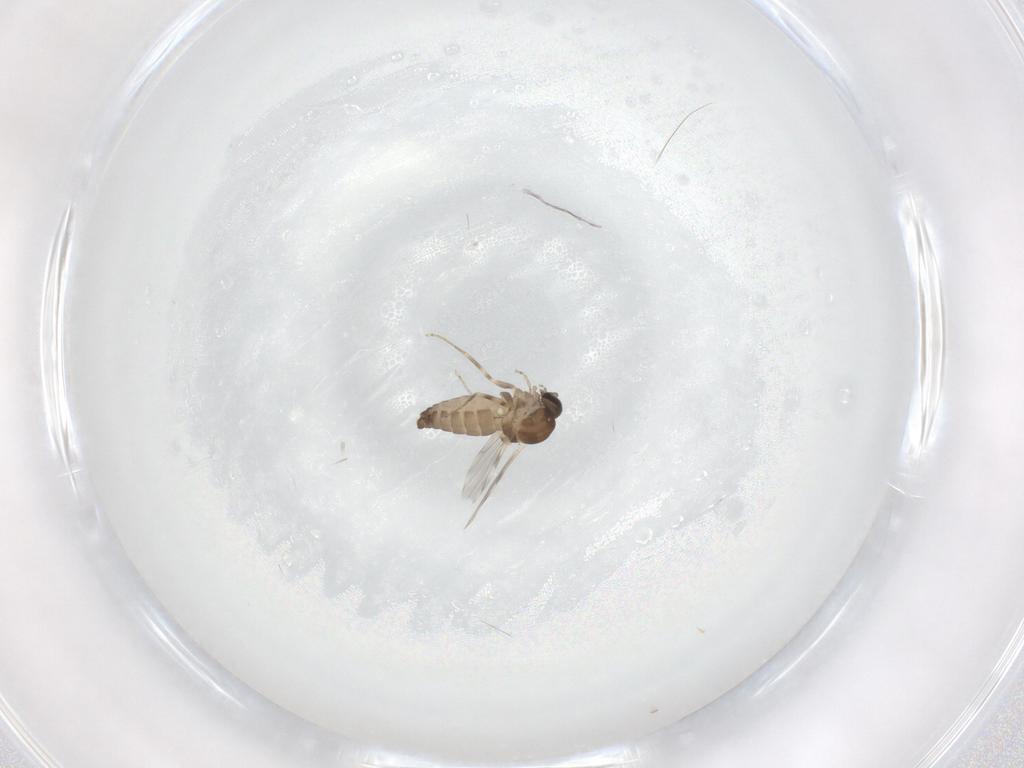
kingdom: Animalia
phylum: Arthropoda
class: Insecta
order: Diptera
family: Ceratopogonidae
